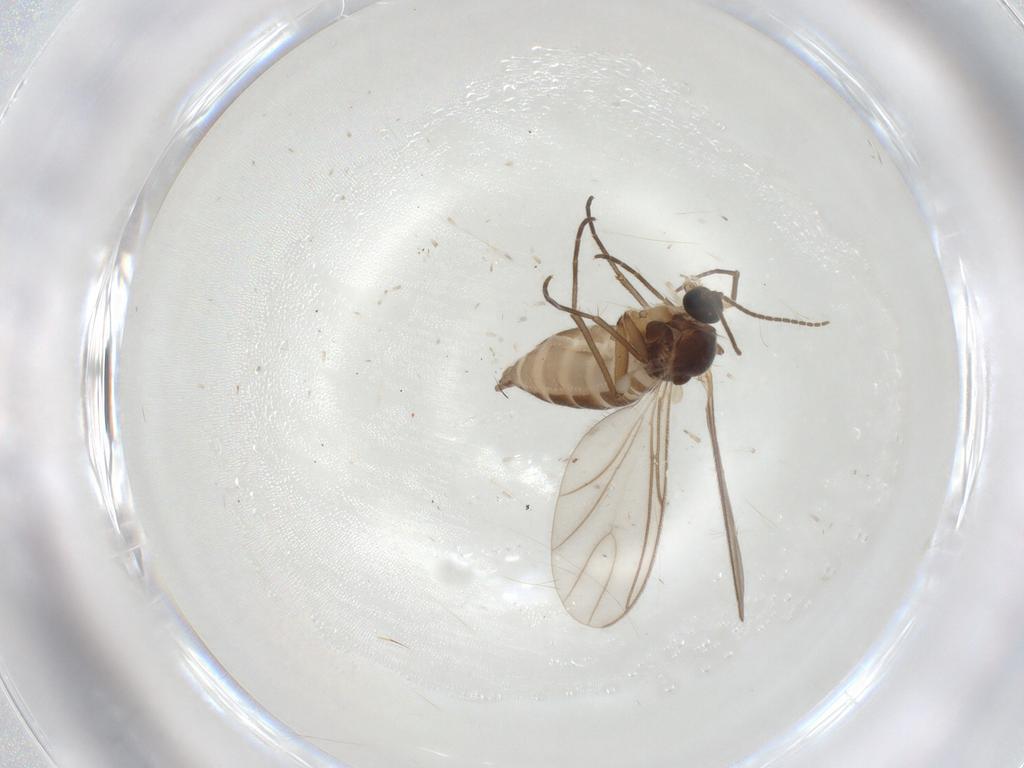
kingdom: Animalia
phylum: Arthropoda
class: Insecta
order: Diptera
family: Sciaridae
